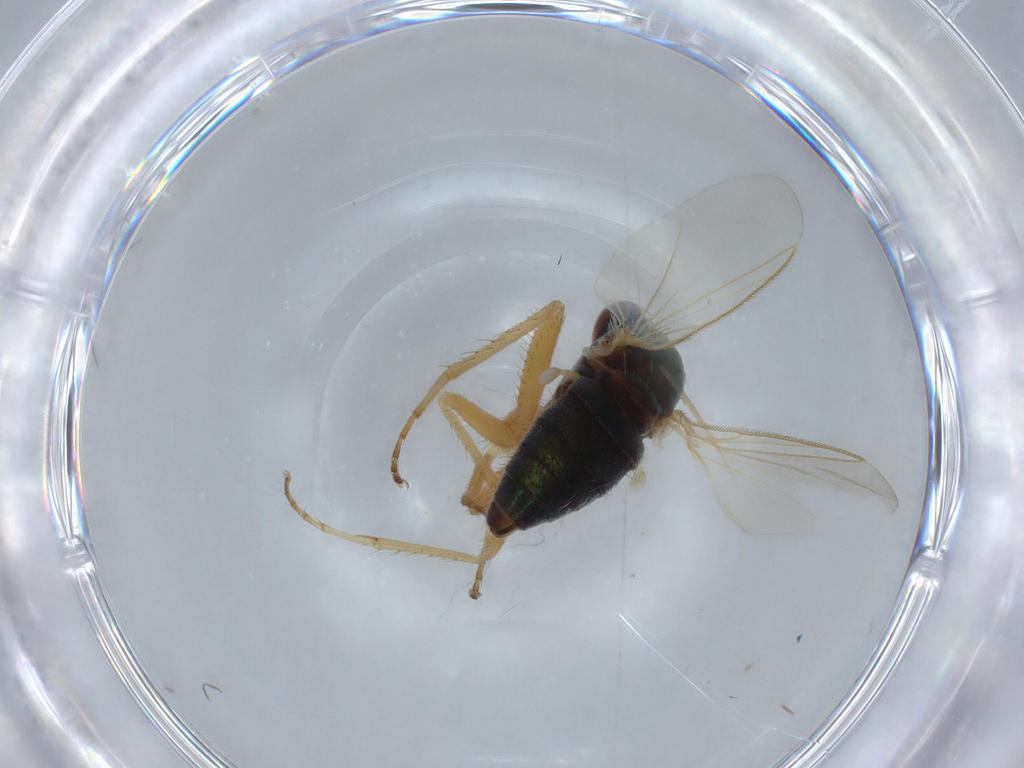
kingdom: Animalia
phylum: Arthropoda
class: Insecta
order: Diptera
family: Dolichopodidae
